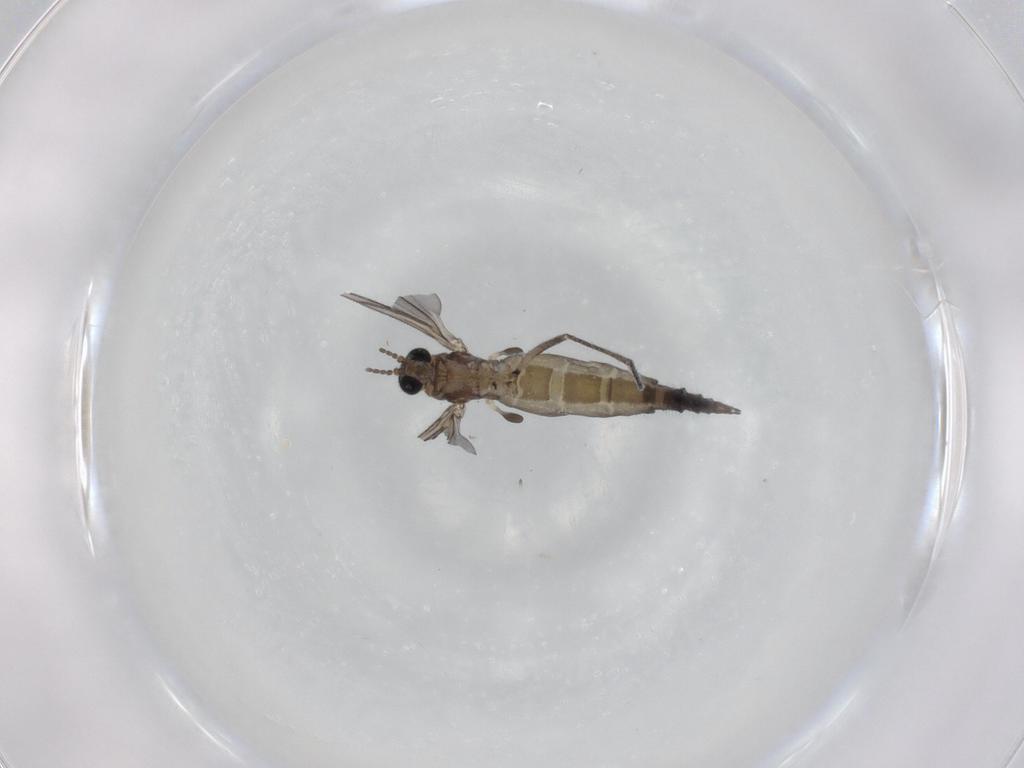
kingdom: Animalia
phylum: Arthropoda
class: Insecta
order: Diptera
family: Sciaridae
